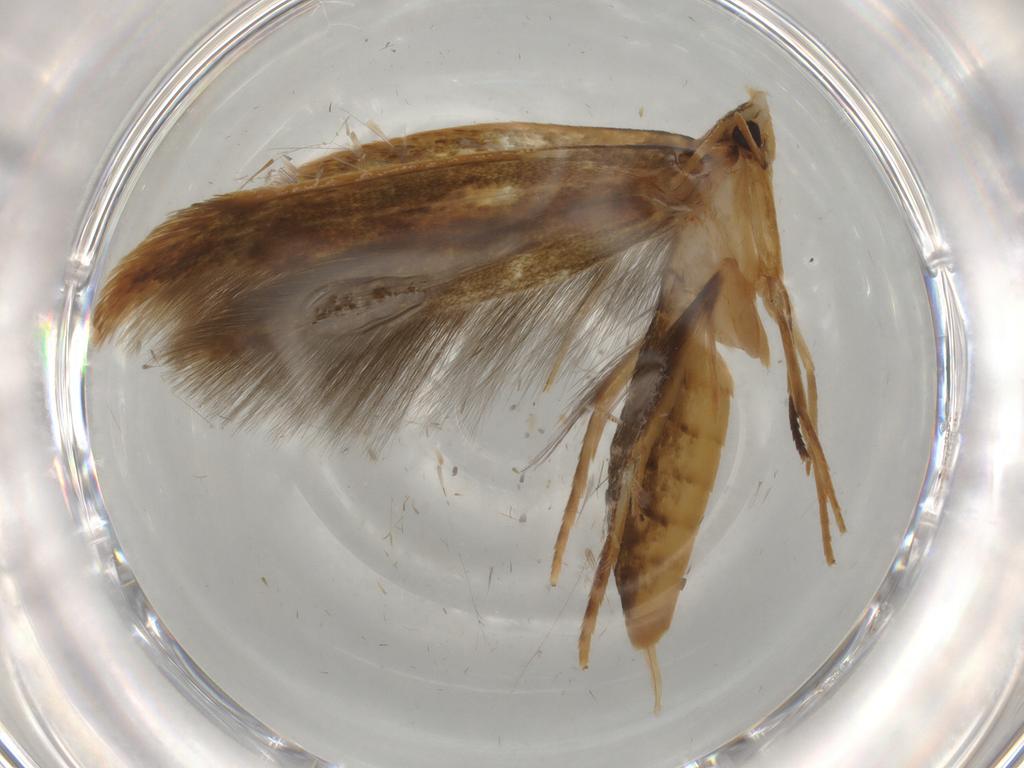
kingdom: Animalia
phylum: Arthropoda
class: Insecta
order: Lepidoptera
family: Tineidae
